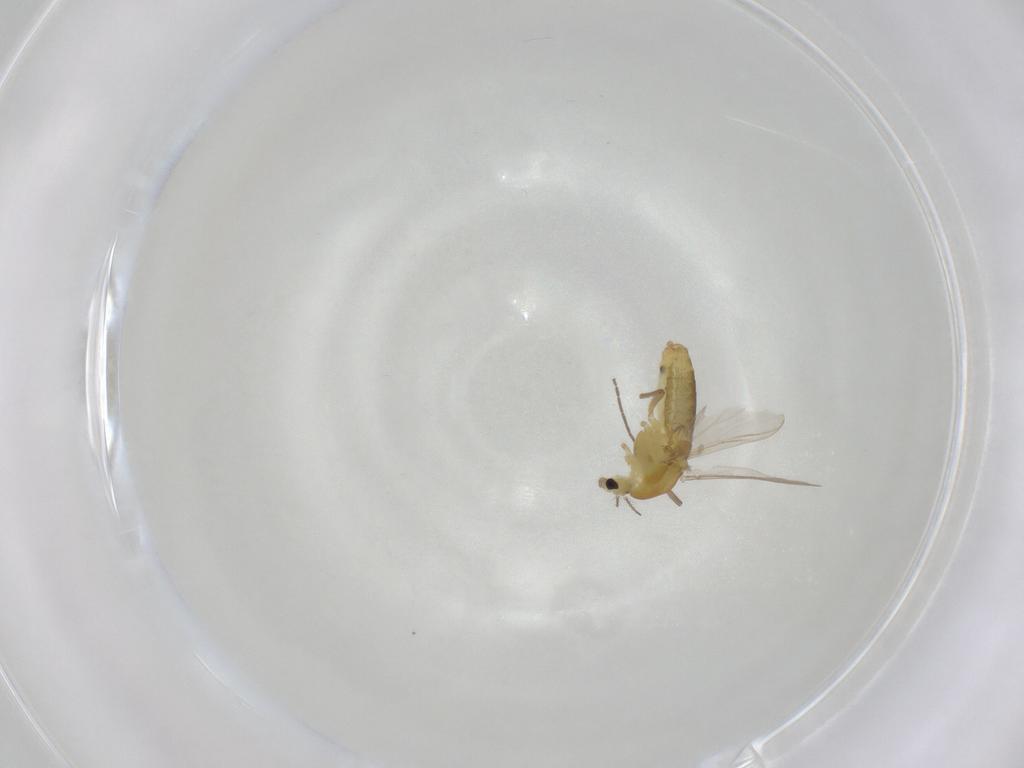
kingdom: Animalia
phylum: Arthropoda
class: Insecta
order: Diptera
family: Chironomidae
